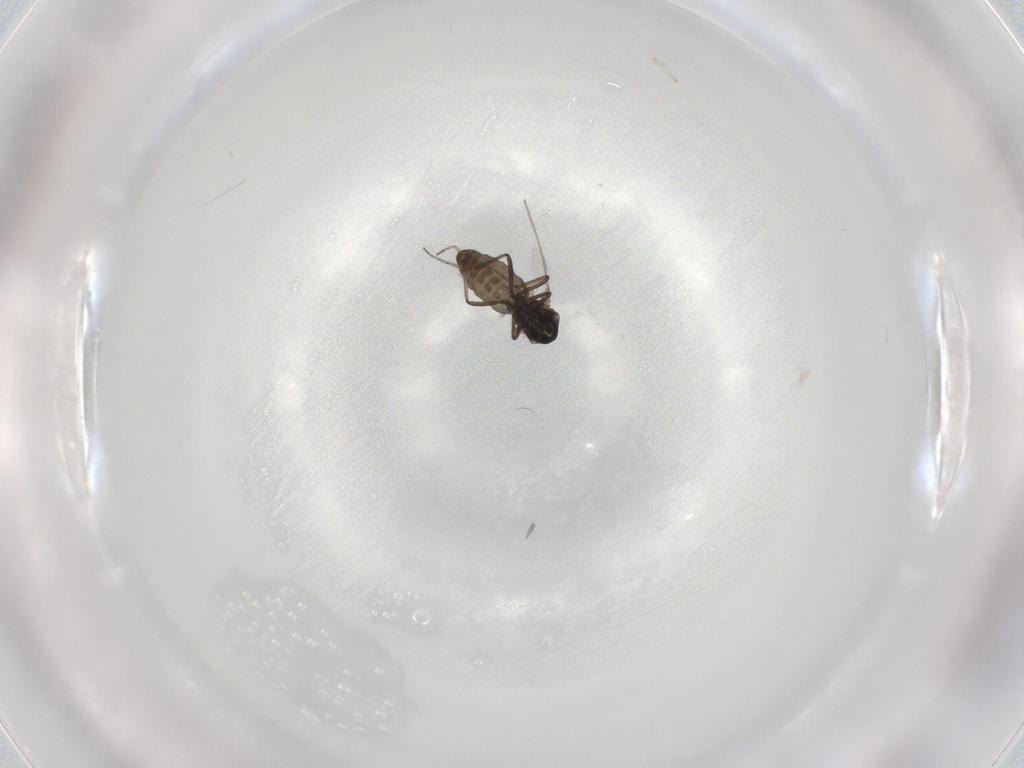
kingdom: Animalia
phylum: Arthropoda
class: Insecta
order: Diptera
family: Ceratopogonidae
